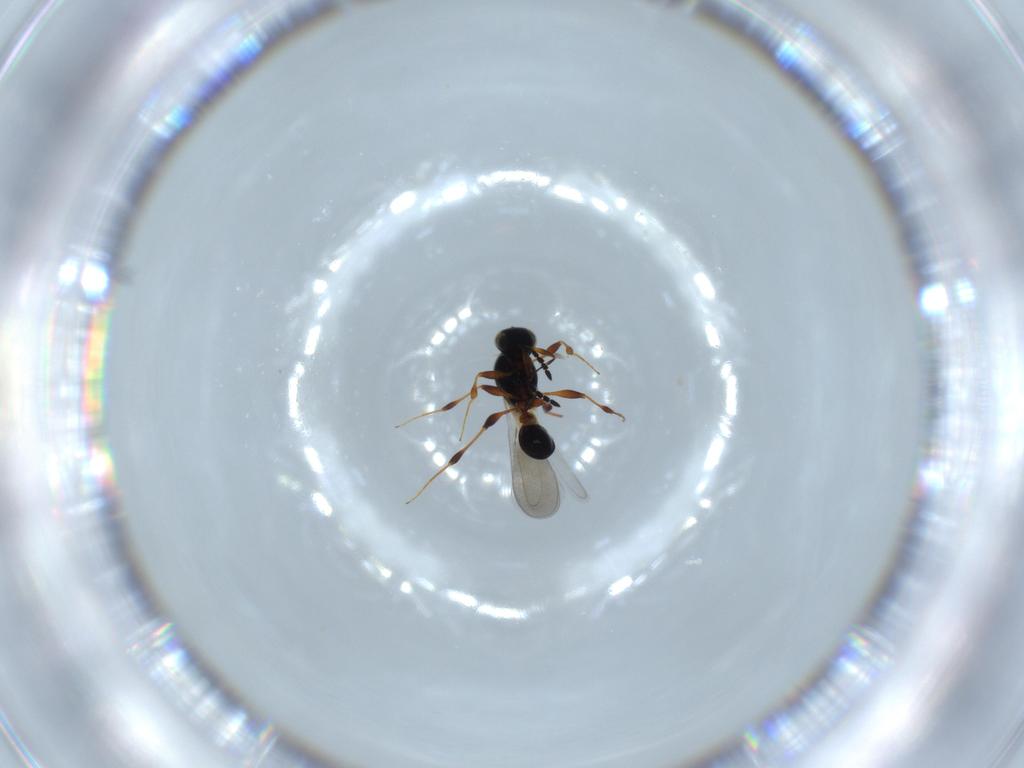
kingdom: Animalia
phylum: Arthropoda
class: Insecta
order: Hymenoptera
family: Platygastridae
